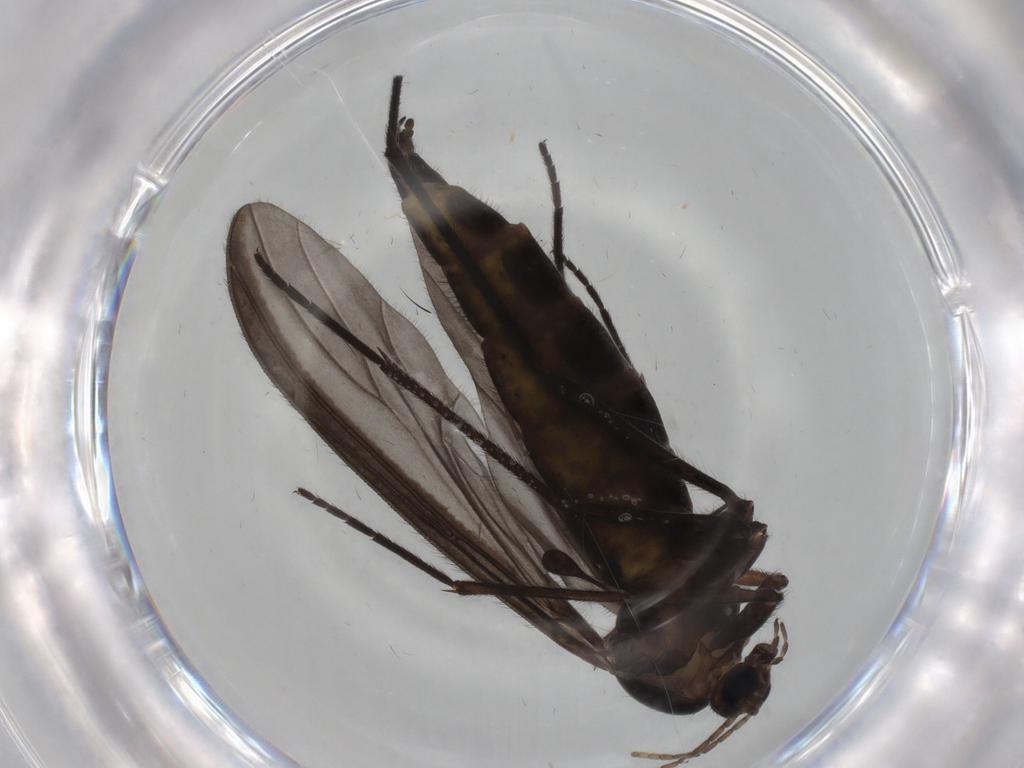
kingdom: Animalia
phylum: Arthropoda
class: Insecta
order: Diptera
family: Sciaridae
